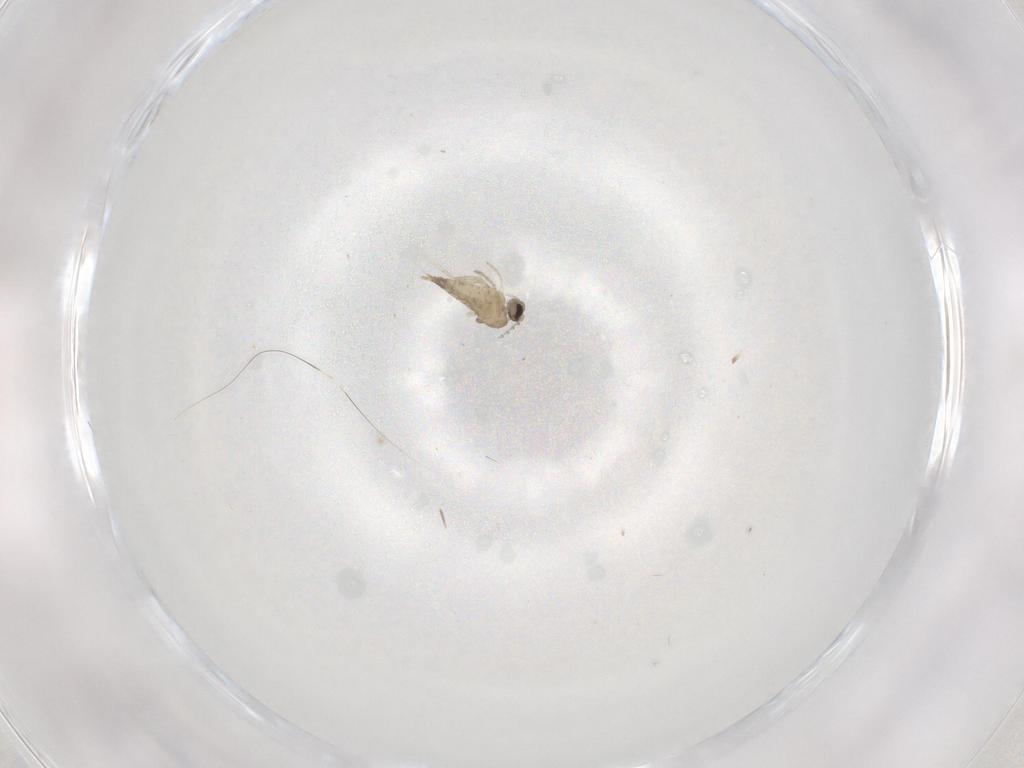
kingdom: Animalia
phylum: Arthropoda
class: Insecta
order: Diptera
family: Cecidomyiidae
